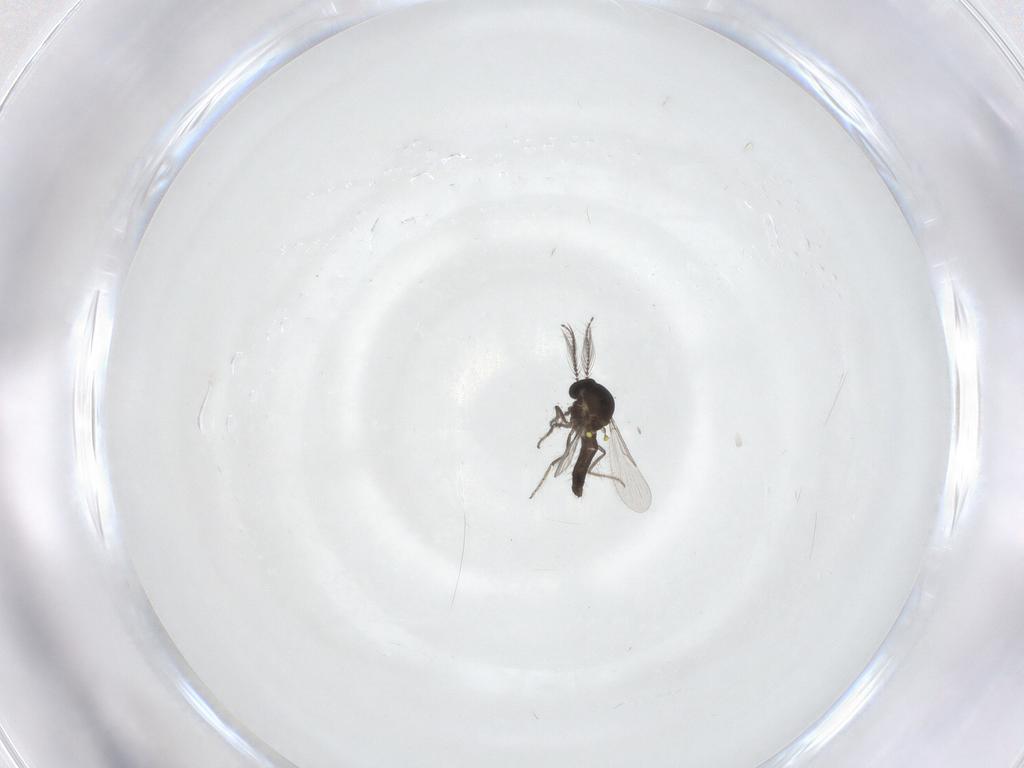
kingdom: Animalia
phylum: Arthropoda
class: Insecta
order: Diptera
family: Ceratopogonidae
